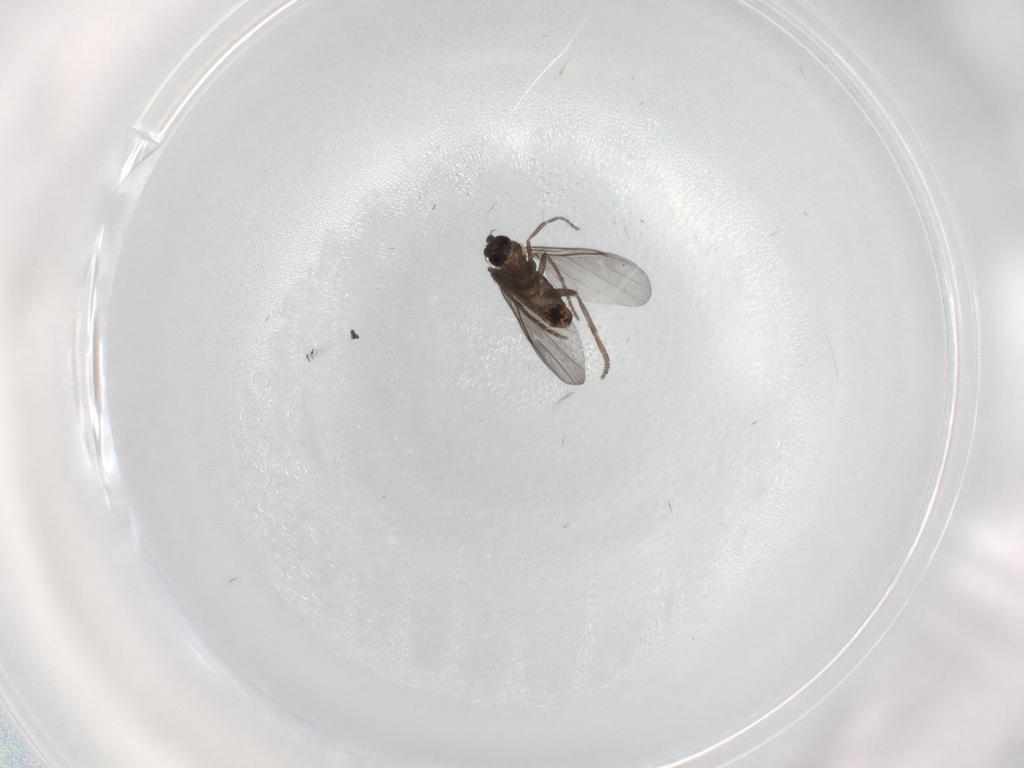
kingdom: Animalia
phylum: Arthropoda
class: Insecta
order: Diptera
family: Phoridae
